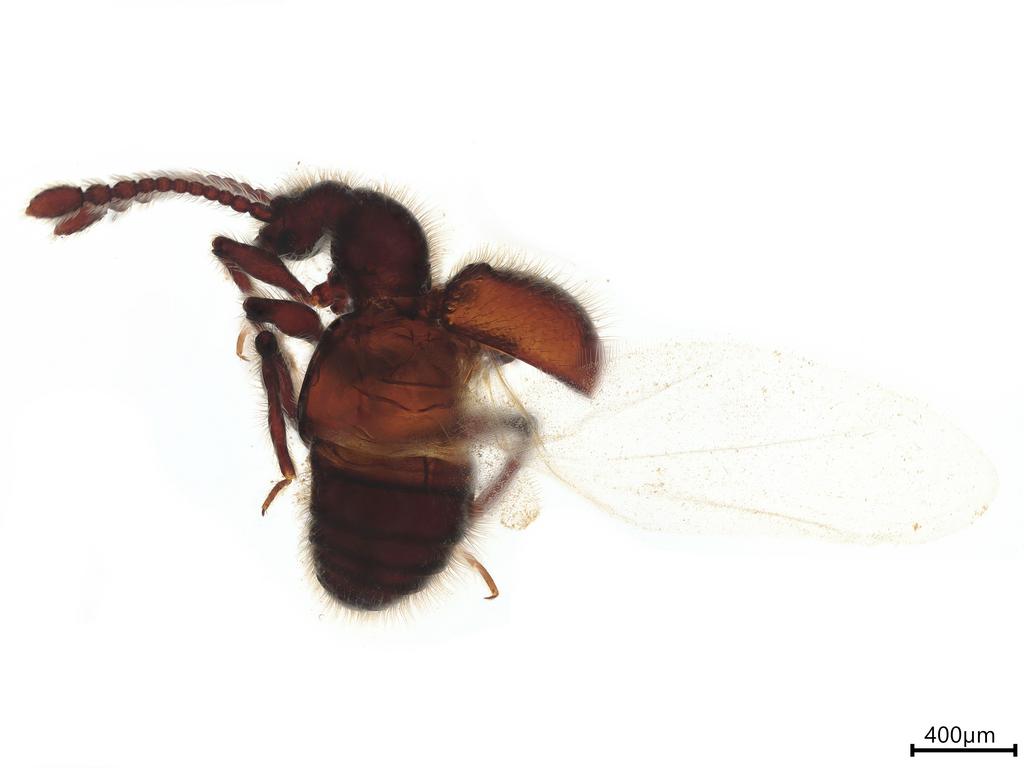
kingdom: Animalia
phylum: Arthropoda
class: Insecta
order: Coleoptera
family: Staphylinidae
